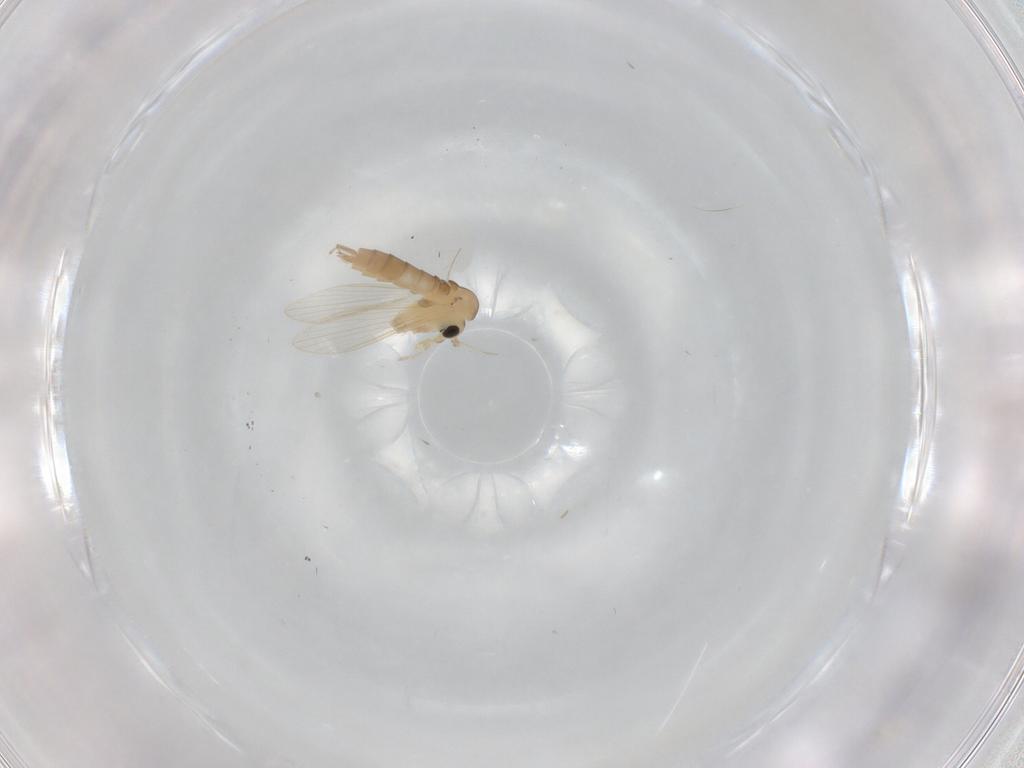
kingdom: Animalia
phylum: Arthropoda
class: Insecta
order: Diptera
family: Psychodidae
